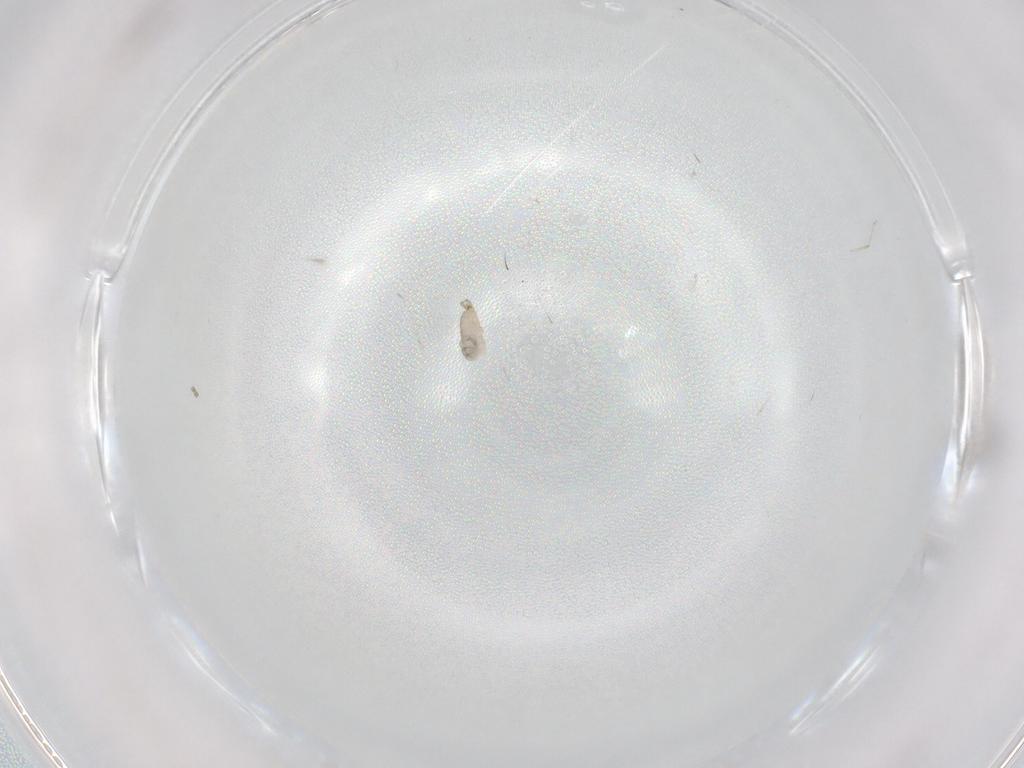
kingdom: Animalia
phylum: Arthropoda
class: Insecta
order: Diptera
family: Cecidomyiidae
